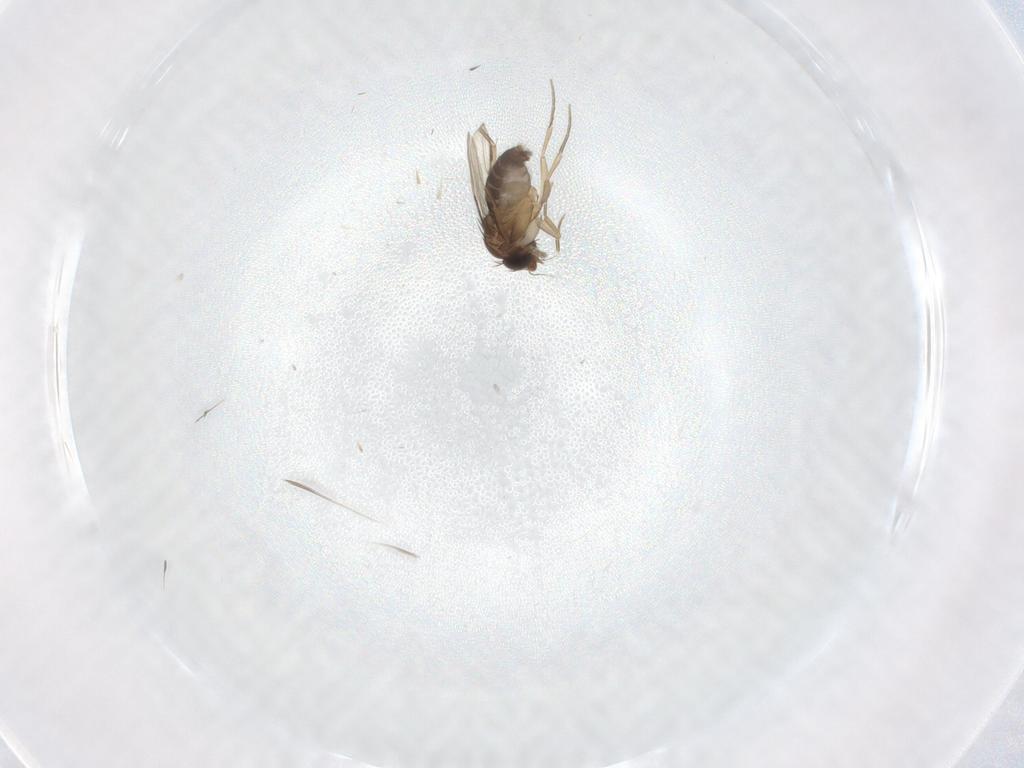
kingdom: Animalia
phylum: Arthropoda
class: Insecta
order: Diptera
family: Phoridae
